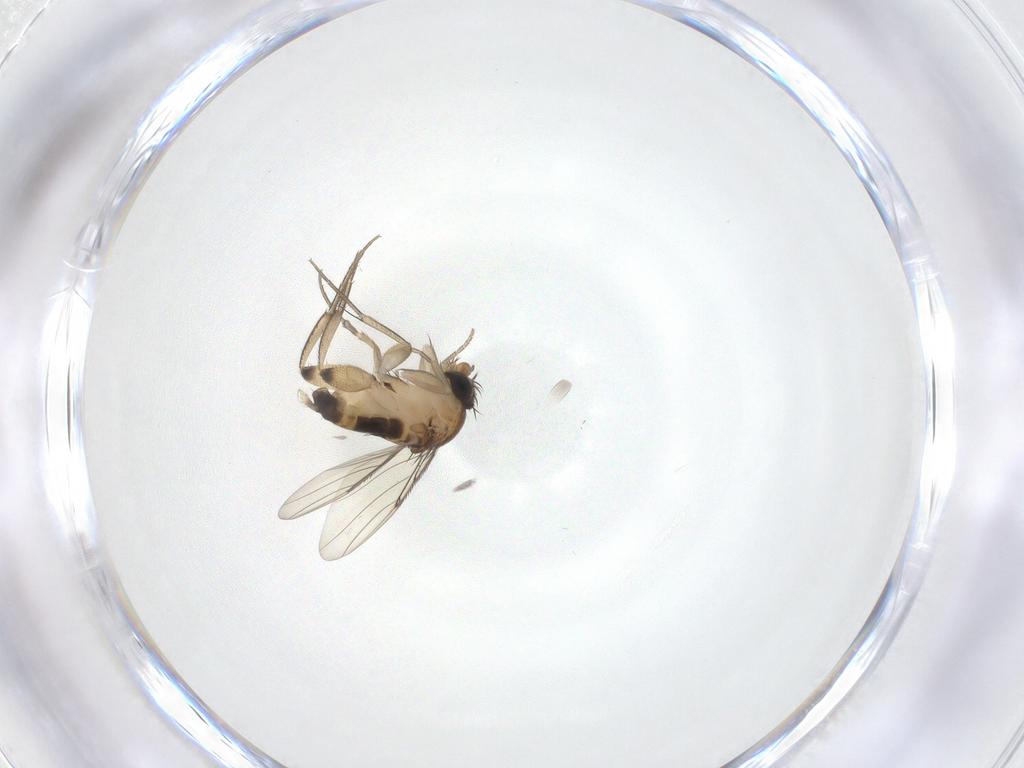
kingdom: Animalia
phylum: Arthropoda
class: Insecta
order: Diptera
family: Phoridae
